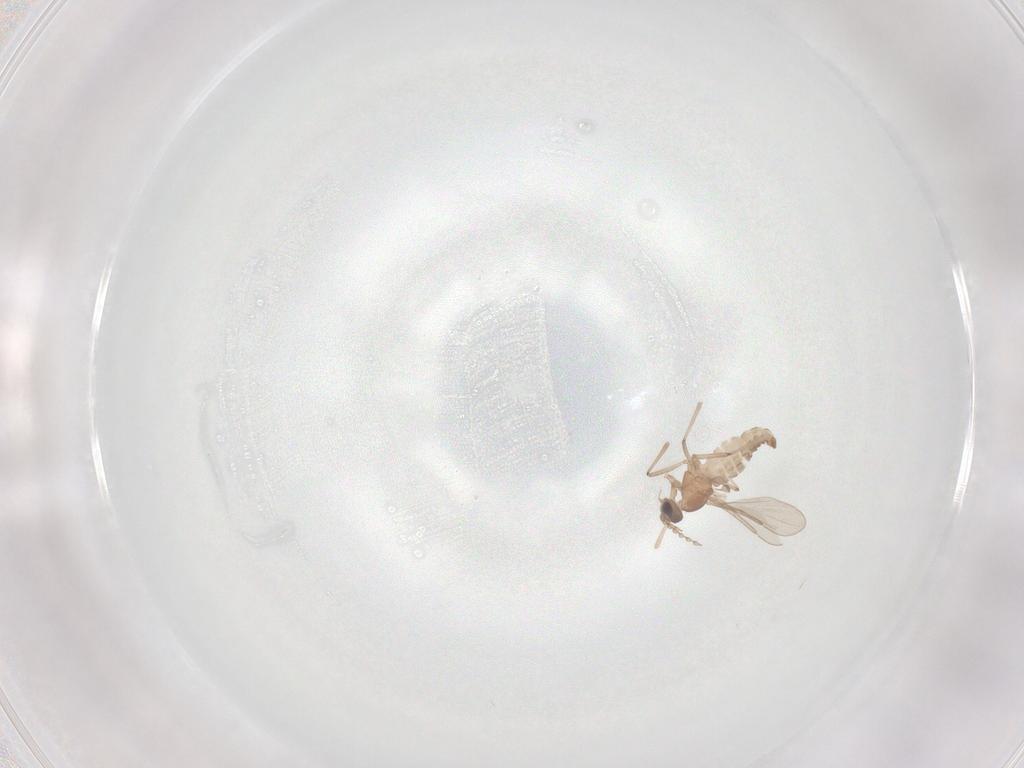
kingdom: Animalia
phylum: Arthropoda
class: Insecta
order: Diptera
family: Cecidomyiidae
